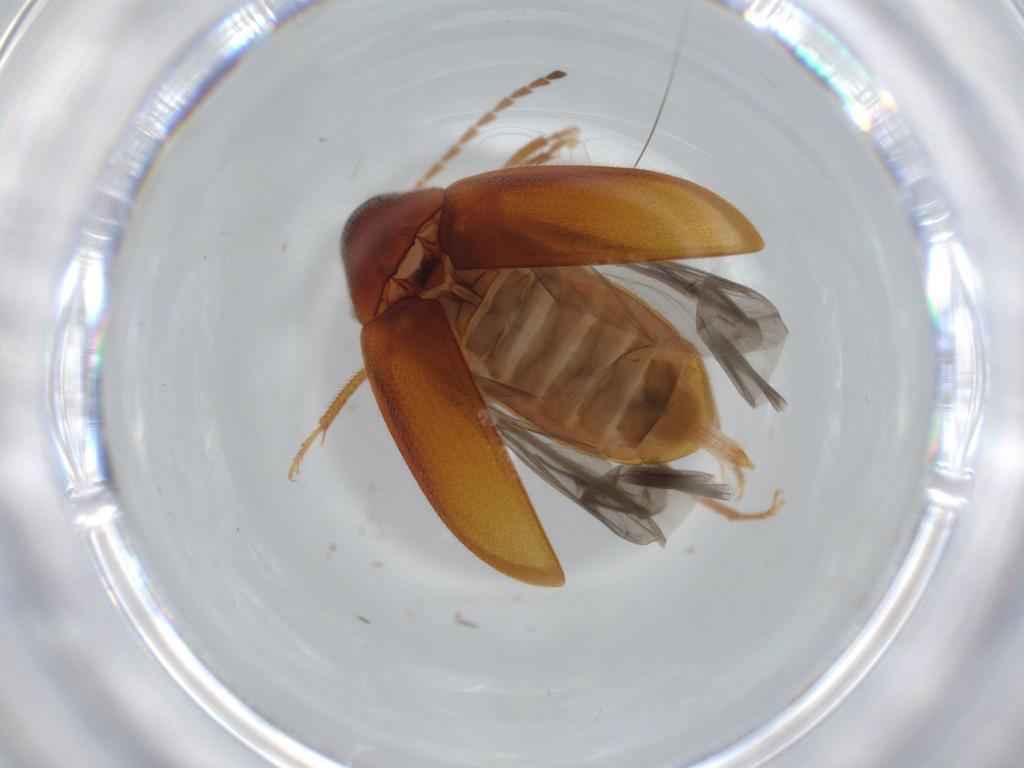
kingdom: Animalia
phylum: Arthropoda
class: Insecta
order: Coleoptera
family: Ptilodactylidae
